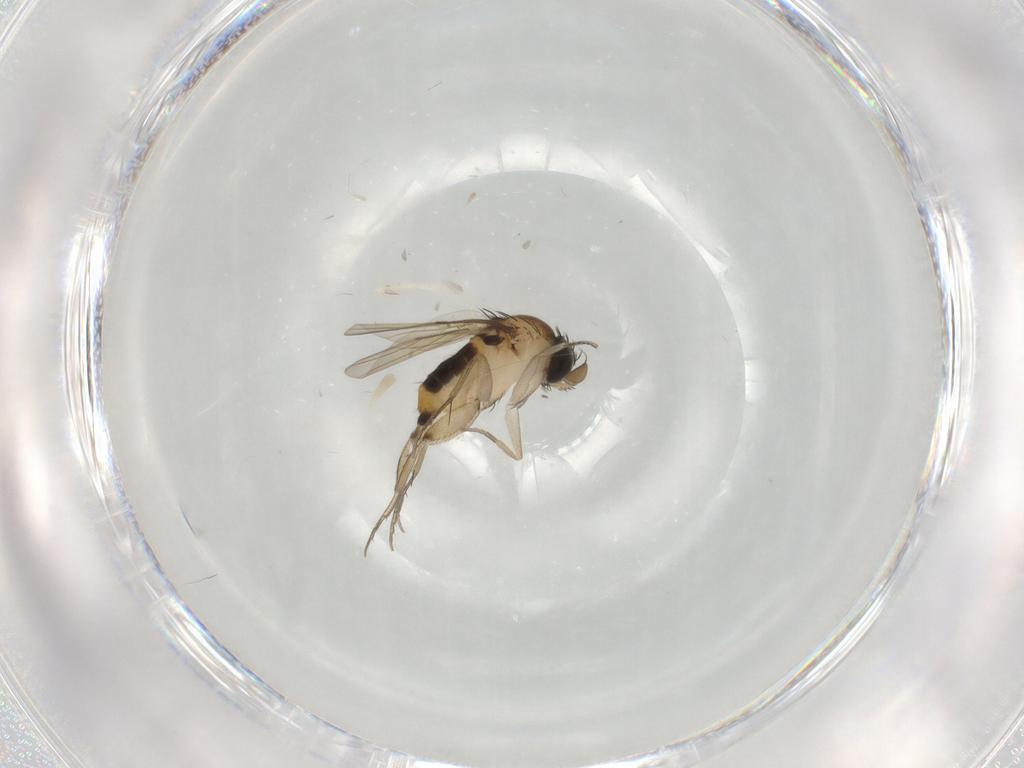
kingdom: Animalia
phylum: Arthropoda
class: Insecta
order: Diptera
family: Phoridae
